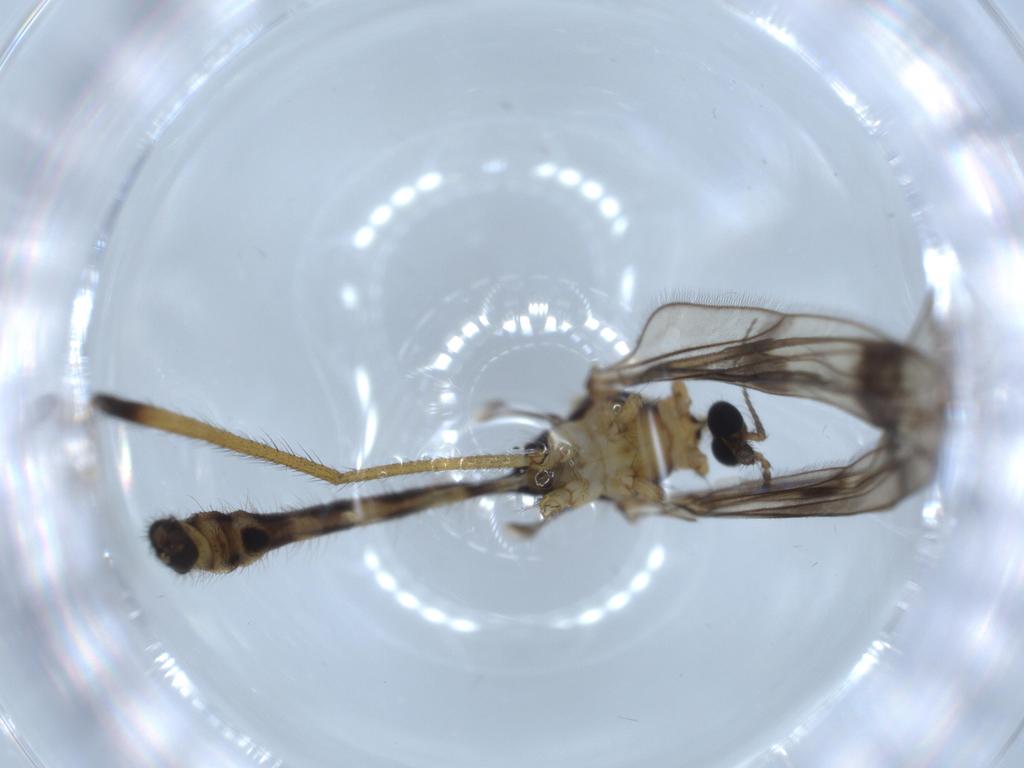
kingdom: Animalia
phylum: Arthropoda
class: Insecta
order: Diptera
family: Limoniidae
